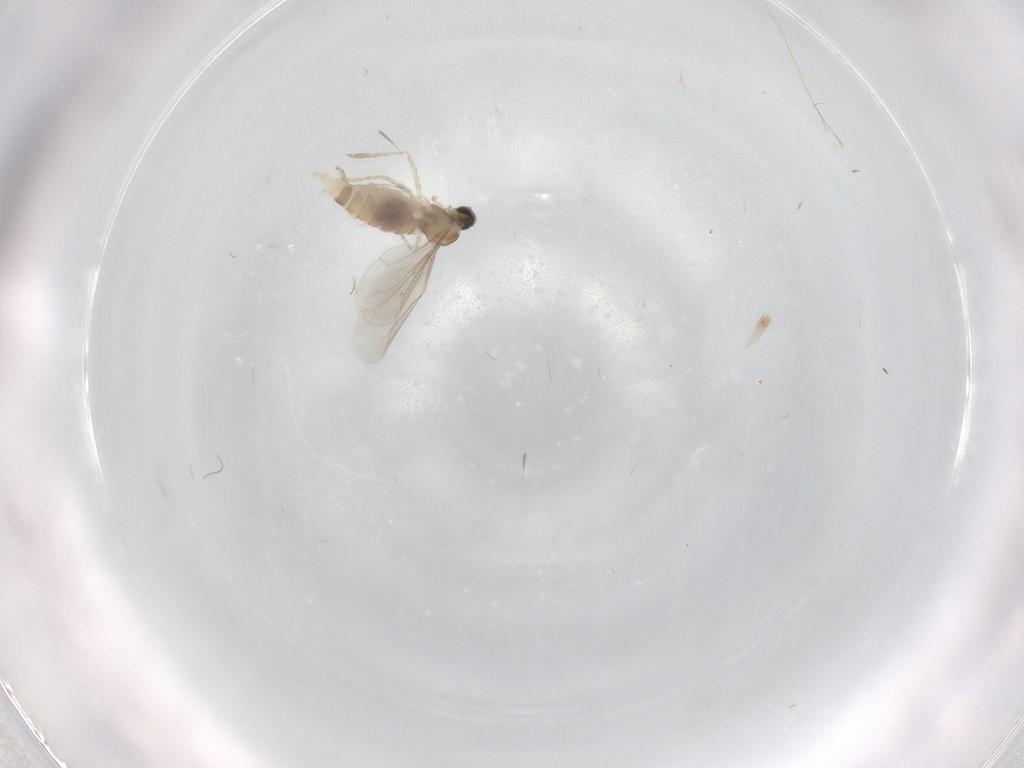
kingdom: Animalia
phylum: Arthropoda
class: Insecta
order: Diptera
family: Cecidomyiidae
